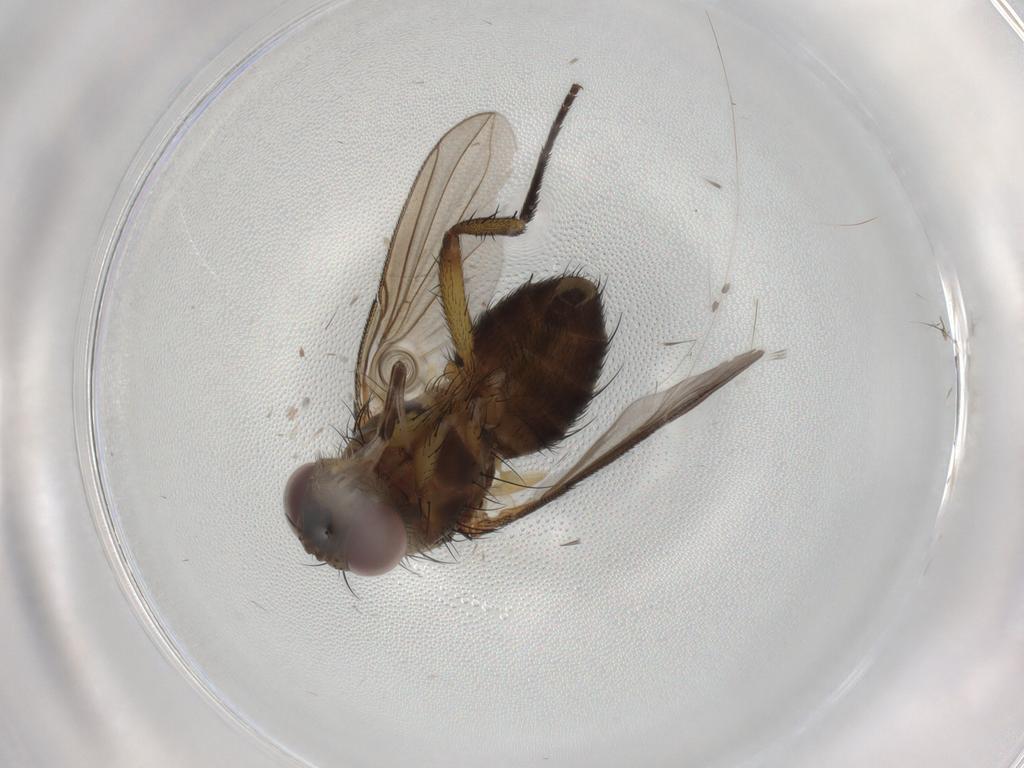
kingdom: Animalia
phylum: Arthropoda
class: Insecta
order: Diptera
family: Tachinidae
